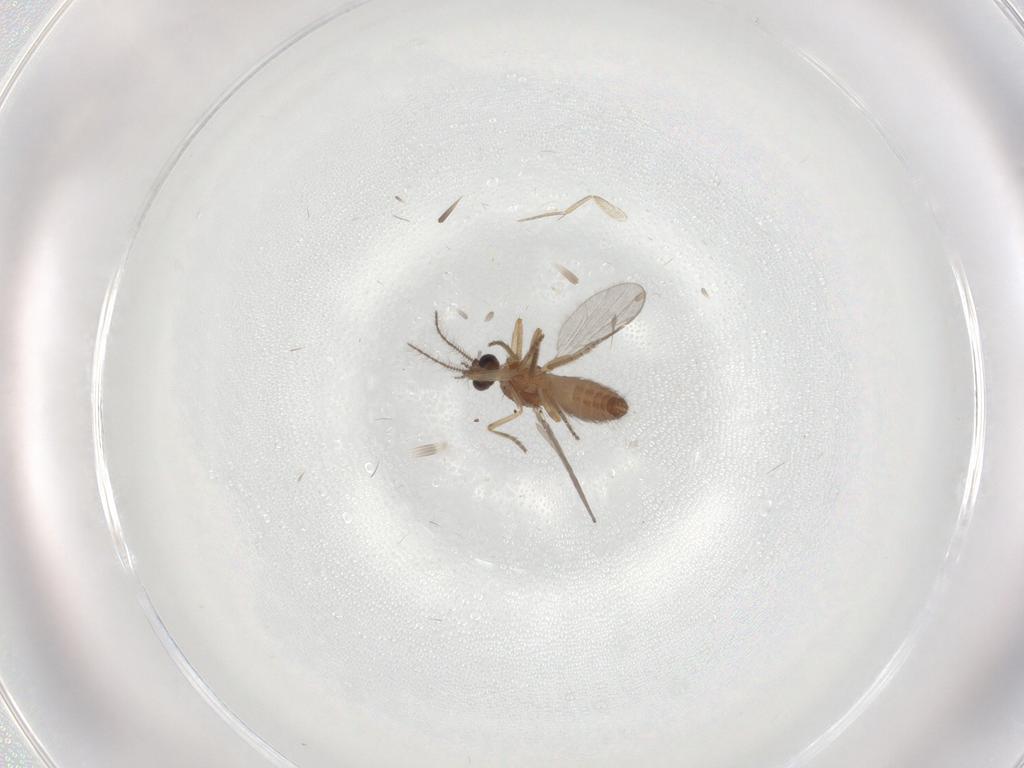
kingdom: Animalia
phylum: Arthropoda
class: Insecta
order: Diptera
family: Ceratopogonidae
